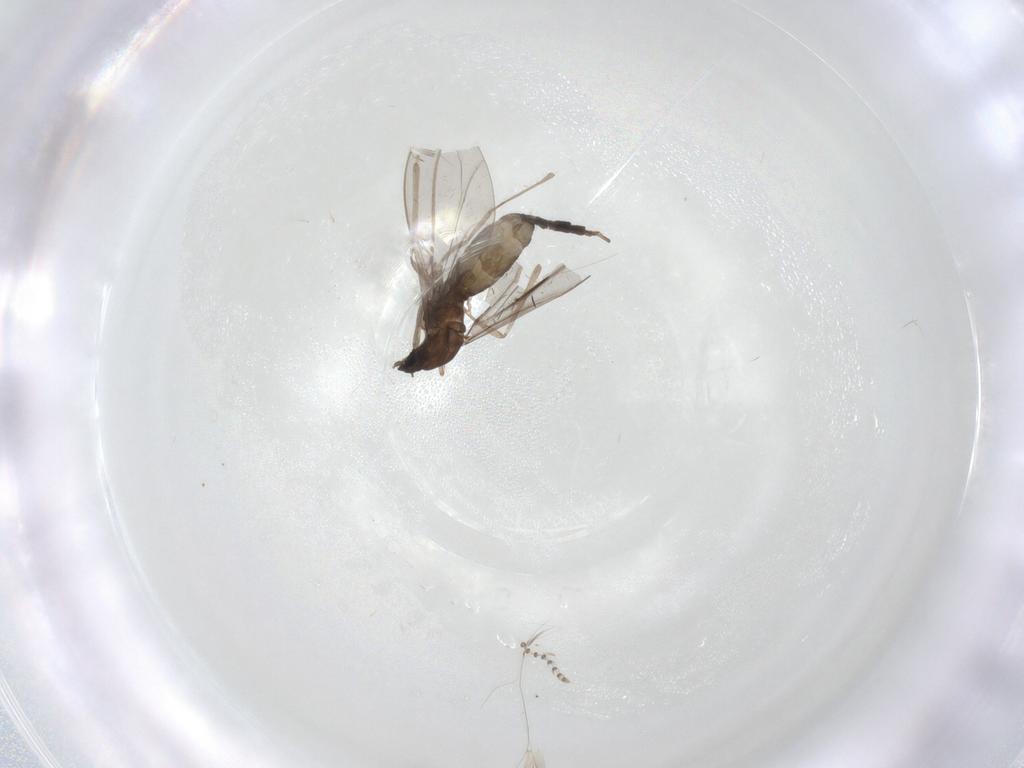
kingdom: Animalia
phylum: Arthropoda
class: Insecta
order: Diptera
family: Cecidomyiidae
